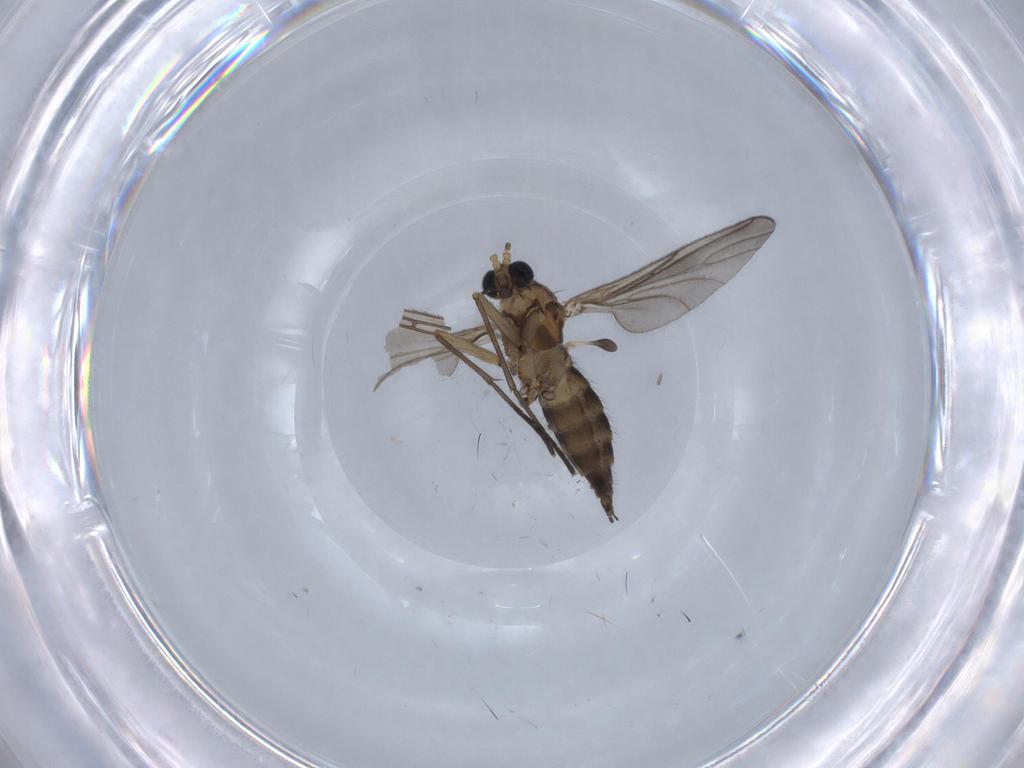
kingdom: Animalia
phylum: Arthropoda
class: Insecta
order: Diptera
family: Sciaridae
